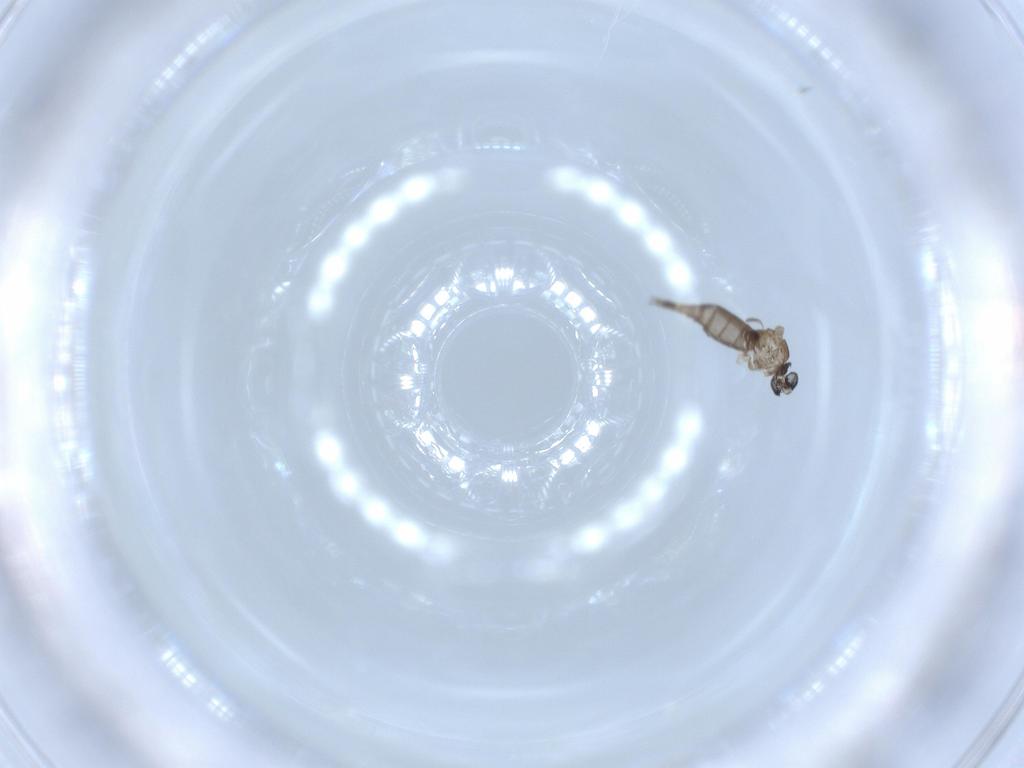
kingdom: Animalia
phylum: Arthropoda
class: Insecta
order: Diptera
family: Sciaridae
